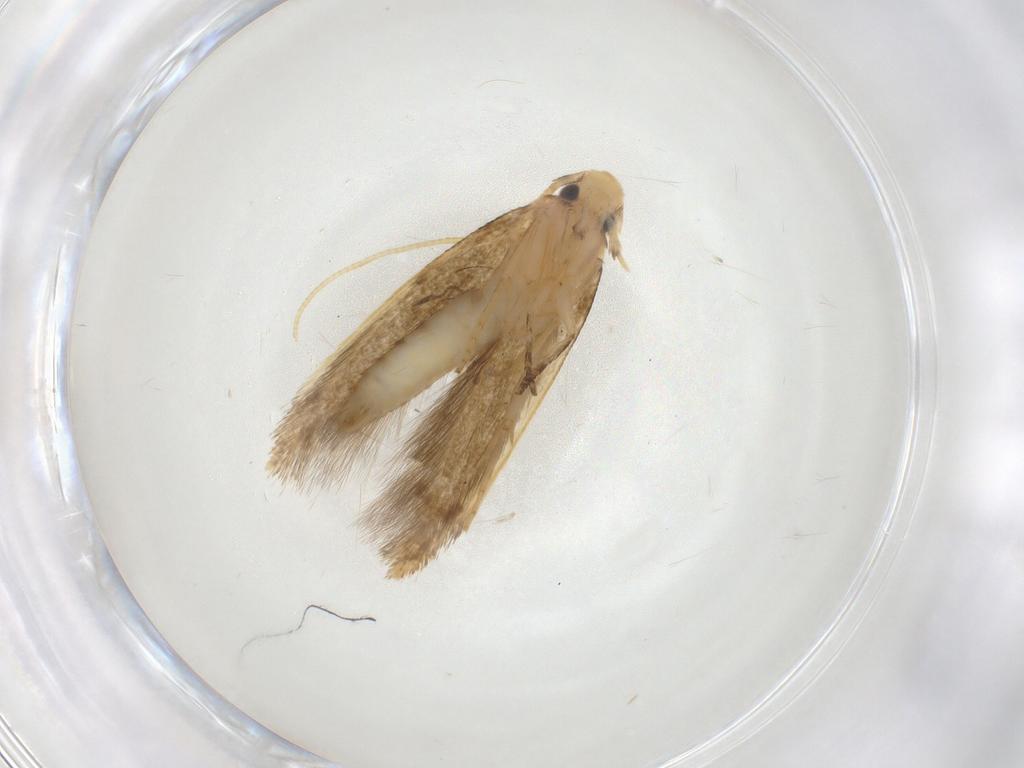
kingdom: Animalia
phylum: Arthropoda
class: Insecta
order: Lepidoptera
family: Tineidae
